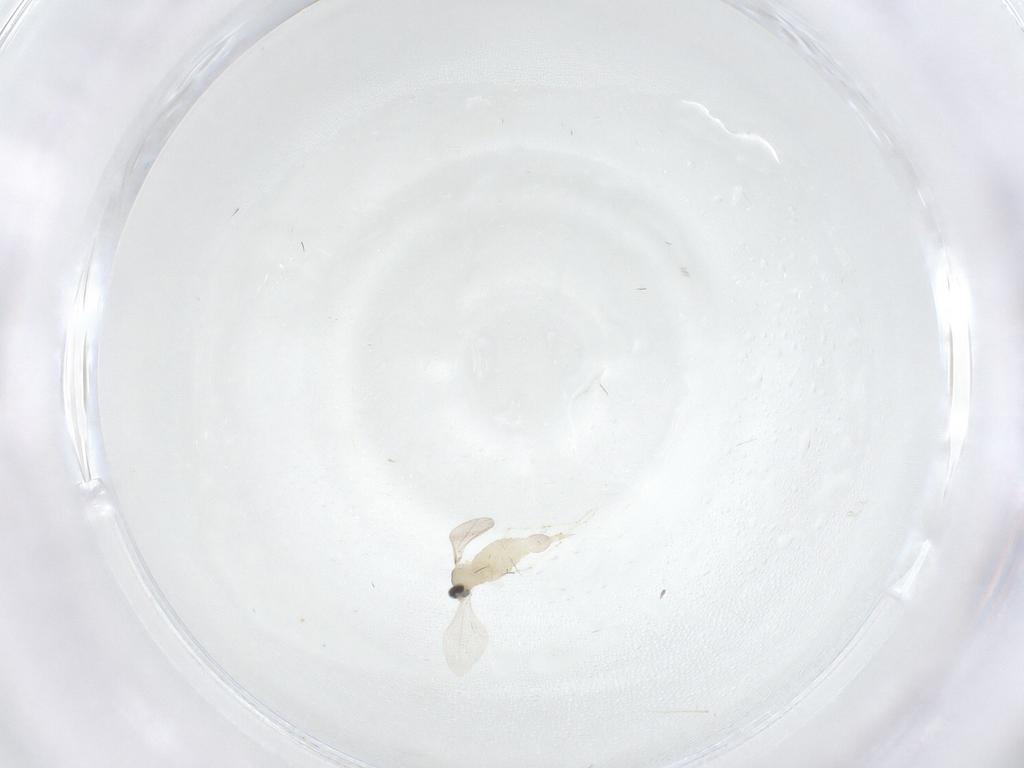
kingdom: Animalia
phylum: Arthropoda
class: Insecta
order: Diptera
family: Cecidomyiidae
